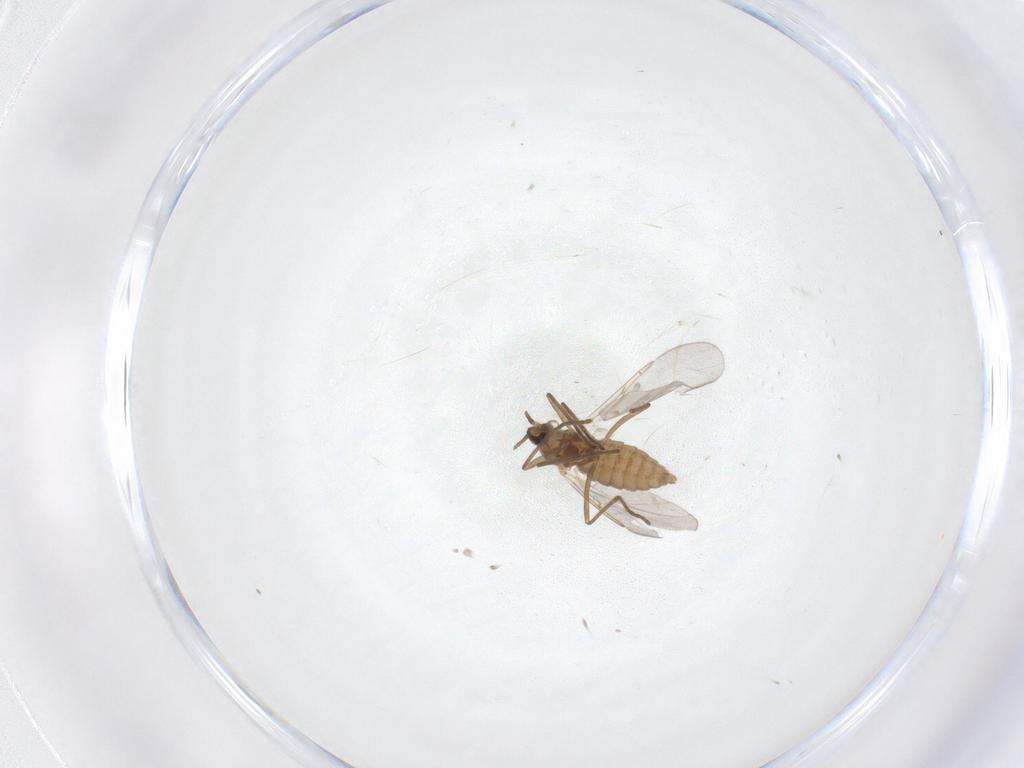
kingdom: Animalia
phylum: Arthropoda
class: Insecta
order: Diptera
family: Cecidomyiidae
